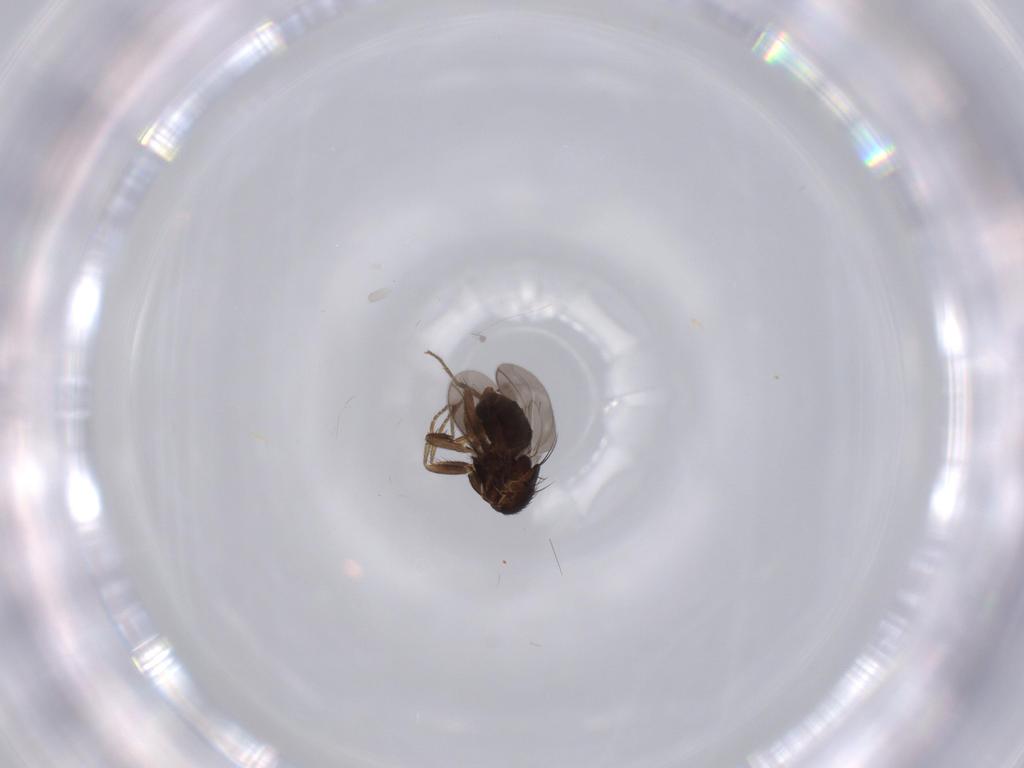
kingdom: Animalia
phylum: Arthropoda
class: Insecta
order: Diptera
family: Sphaeroceridae
